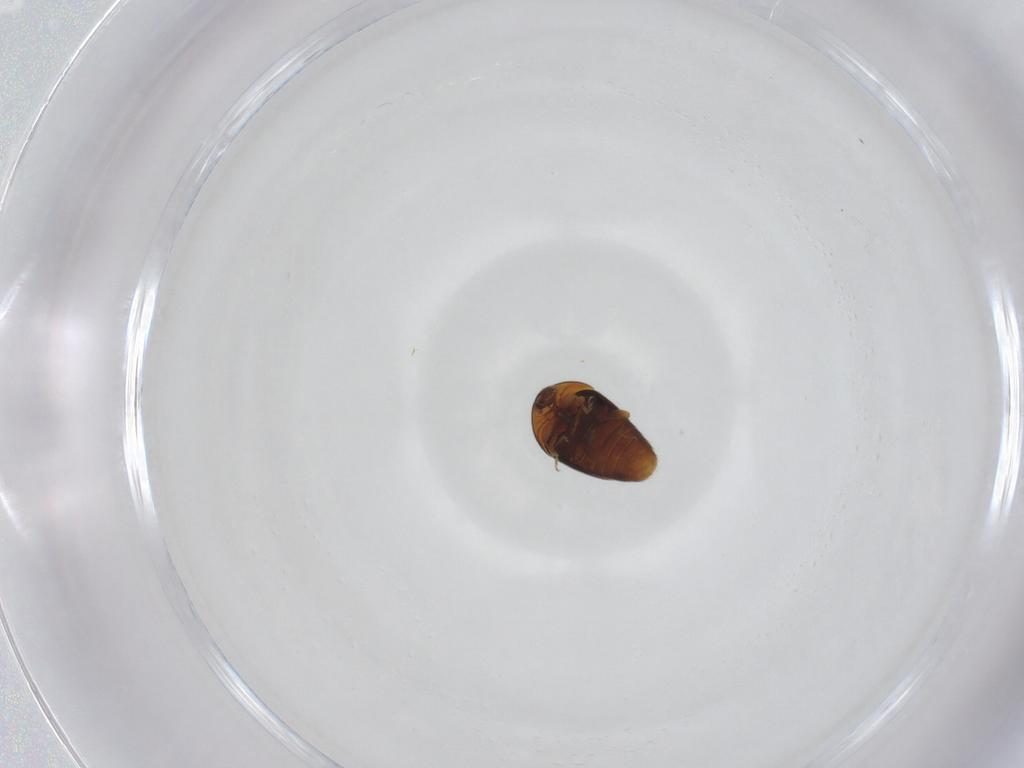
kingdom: Animalia
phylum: Arthropoda
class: Insecta
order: Coleoptera
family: Corylophidae
